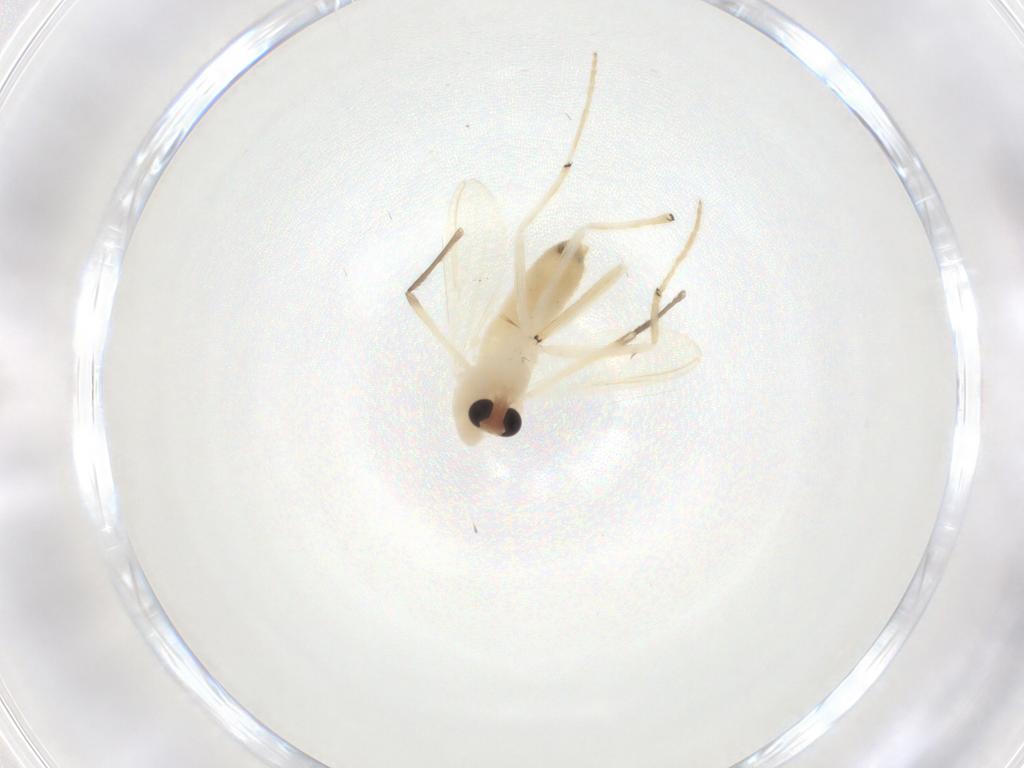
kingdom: Animalia
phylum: Arthropoda
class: Insecta
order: Diptera
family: Chironomidae
